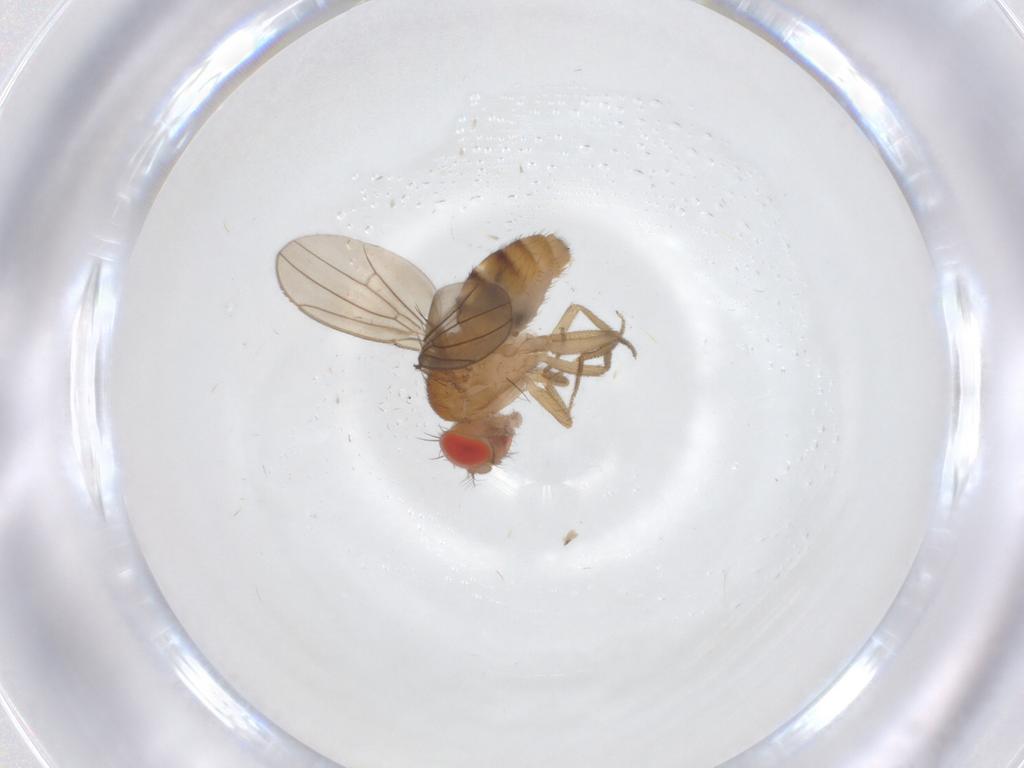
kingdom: Animalia
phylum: Arthropoda
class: Insecta
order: Diptera
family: Drosophilidae
